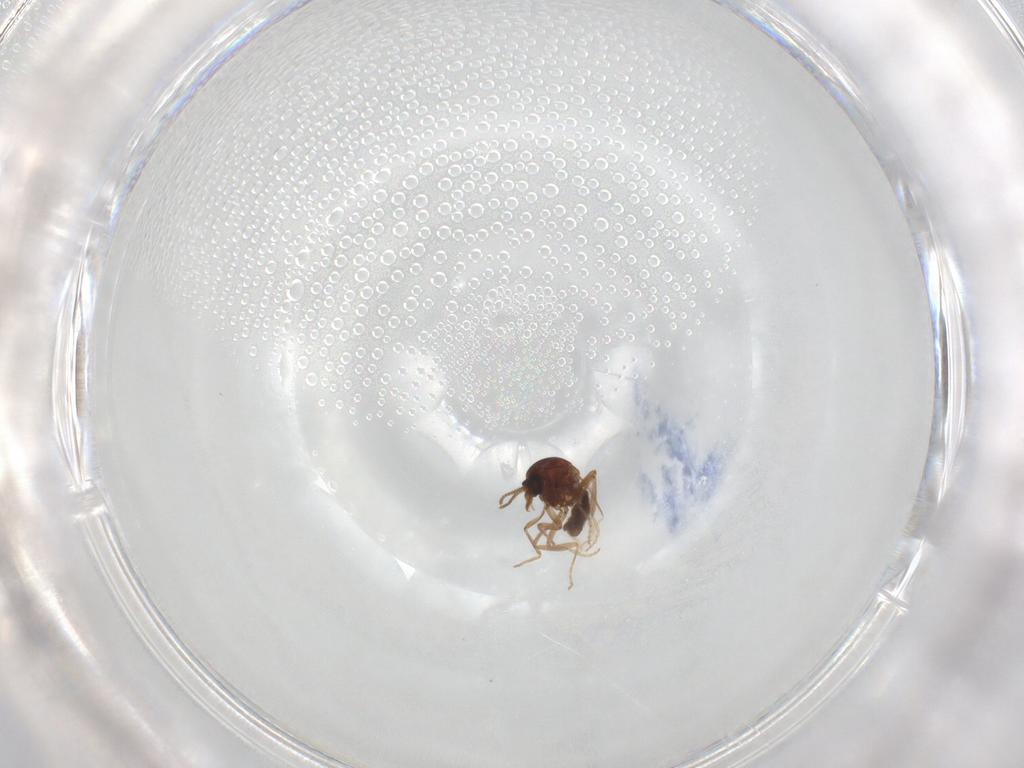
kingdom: Animalia
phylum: Arthropoda
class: Insecta
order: Diptera
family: Ceratopogonidae
